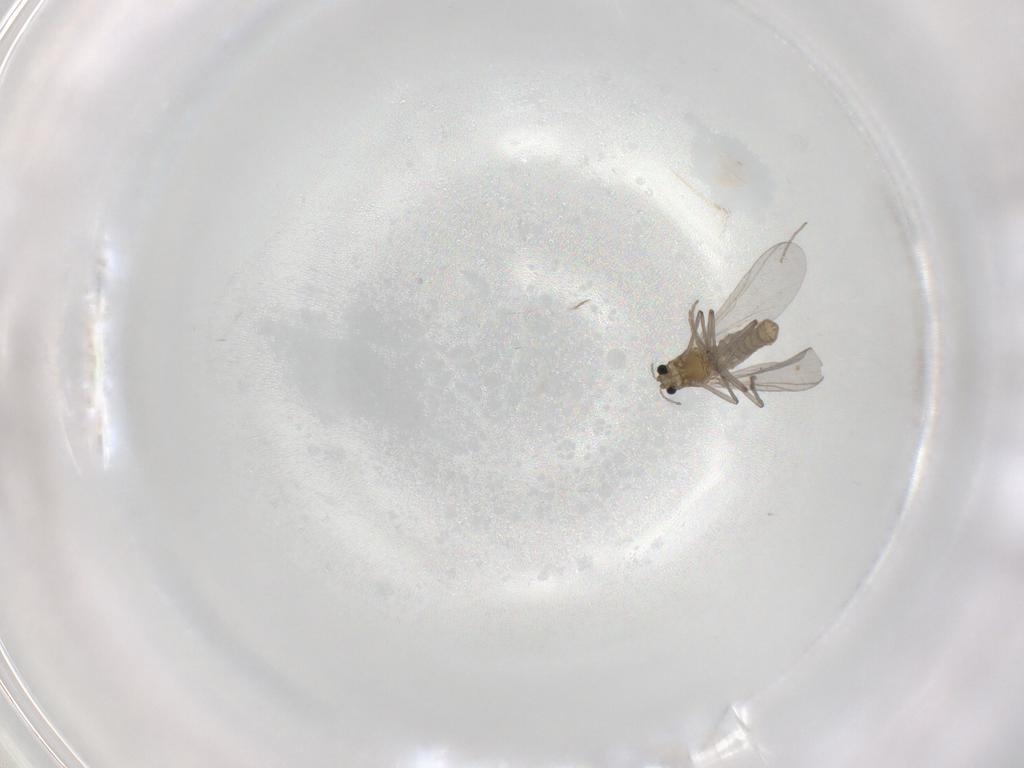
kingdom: Animalia
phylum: Arthropoda
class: Insecta
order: Diptera
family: Chironomidae
